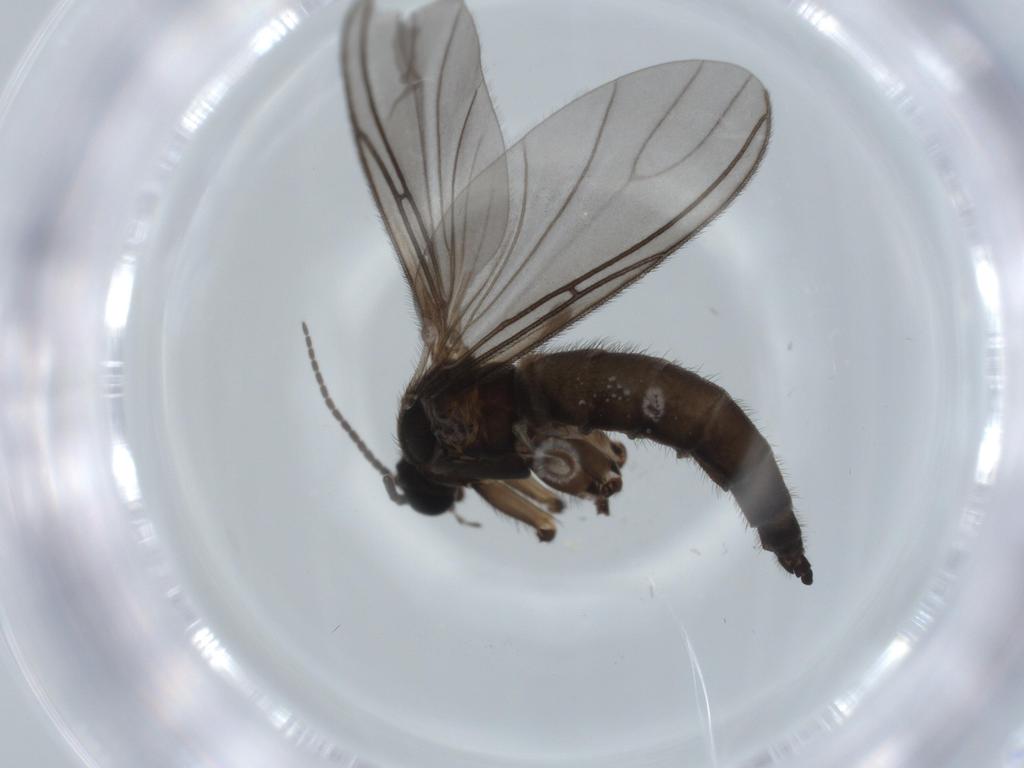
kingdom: Animalia
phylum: Arthropoda
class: Insecta
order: Diptera
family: Sciaridae
